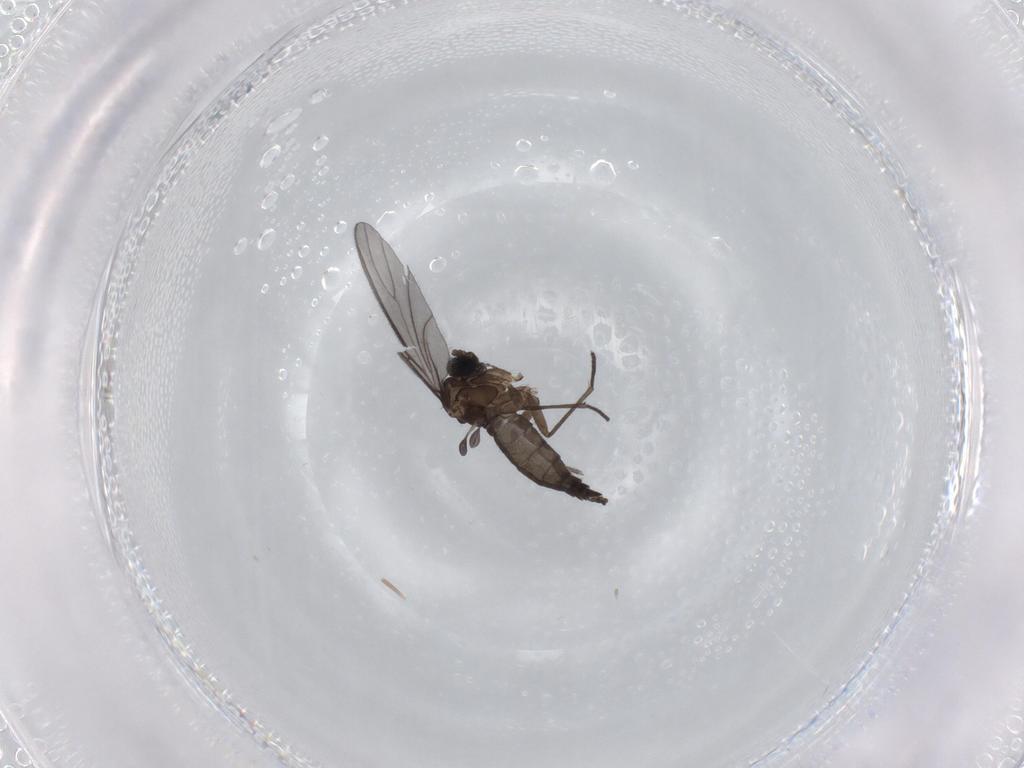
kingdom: Animalia
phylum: Arthropoda
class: Insecta
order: Diptera
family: Sciaridae
